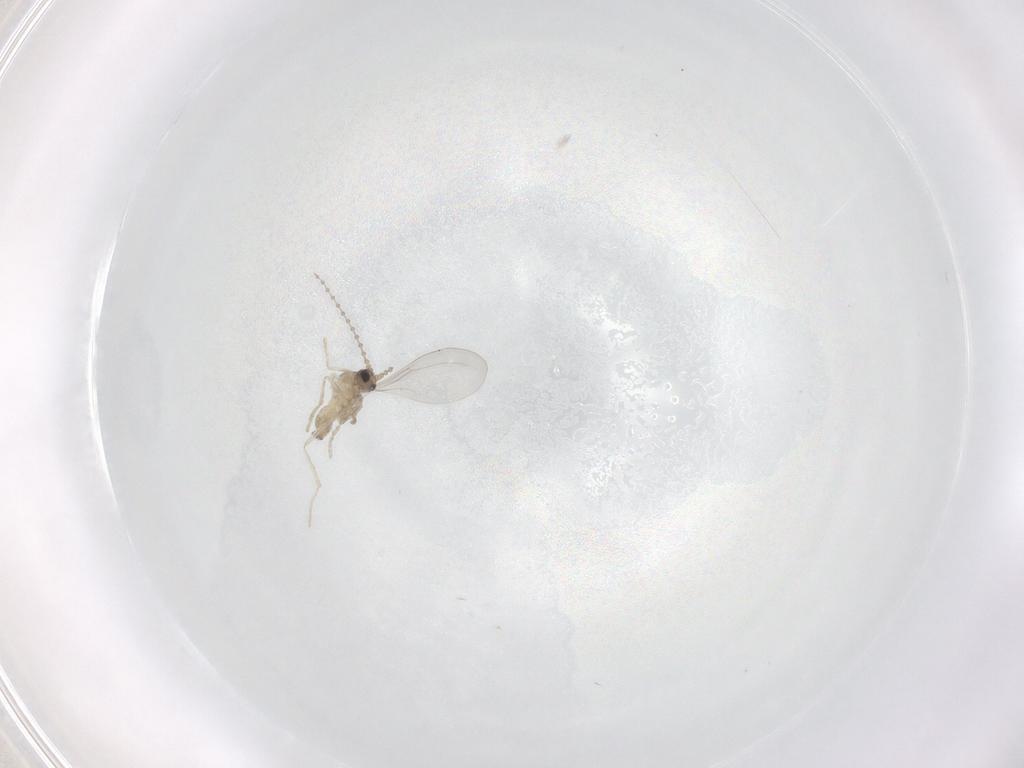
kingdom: Animalia
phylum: Arthropoda
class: Insecta
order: Diptera
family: Cecidomyiidae
